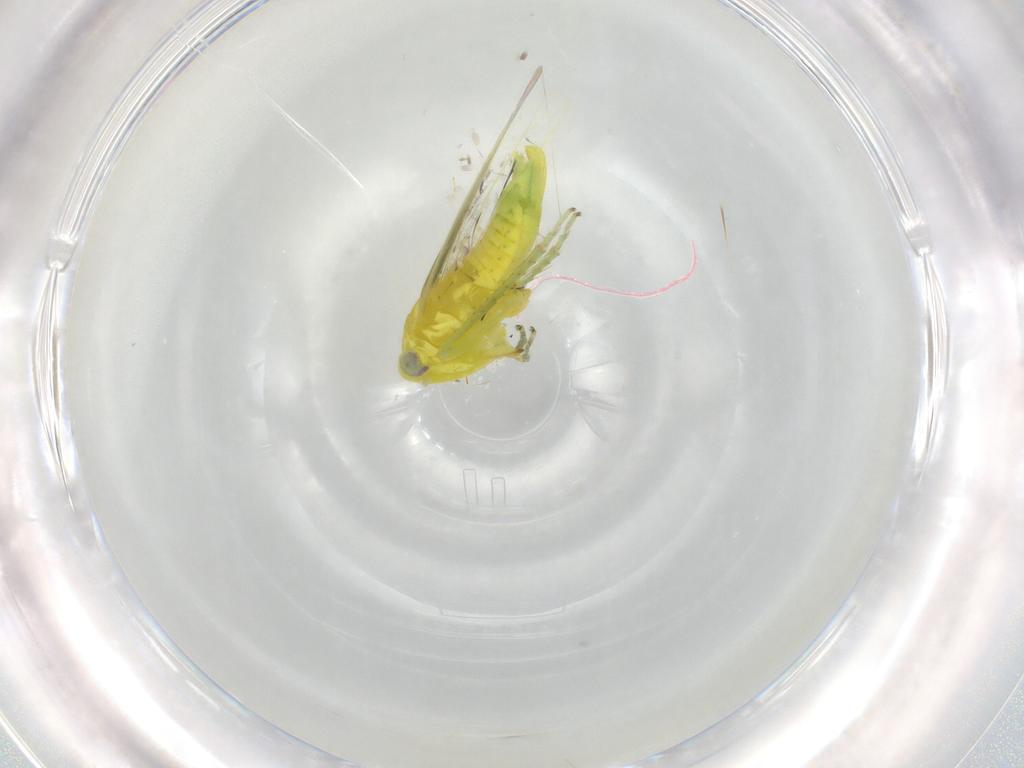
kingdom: Animalia
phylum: Arthropoda
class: Insecta
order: Hemiptera
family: Cicadellidae
